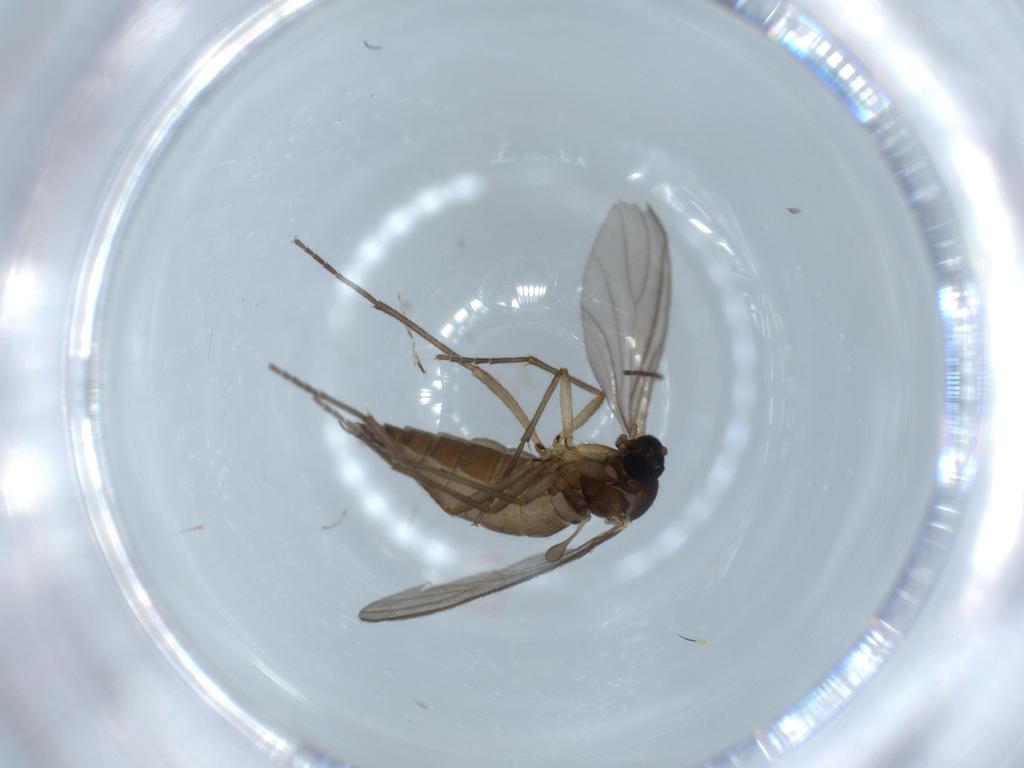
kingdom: Animalia
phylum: Arthropoda
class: Insecta
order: Diptera
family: Sciaridae
